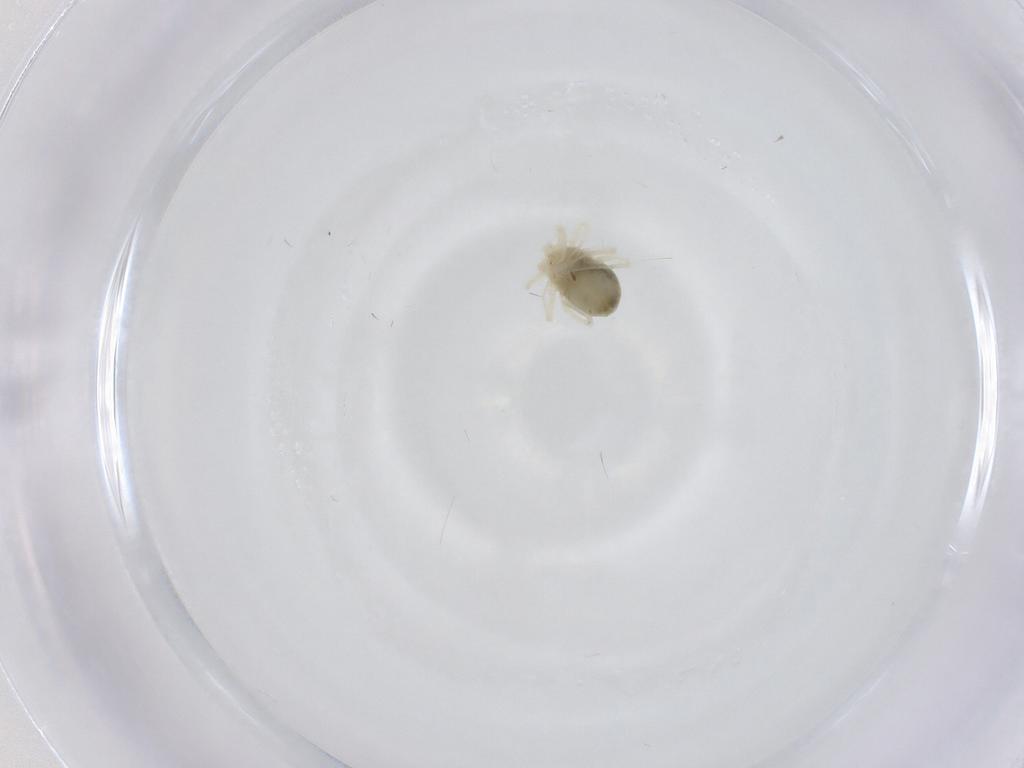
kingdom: Animalia
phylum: Arthropoda
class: Arachnida
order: Trombidiformes
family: Anystidae
